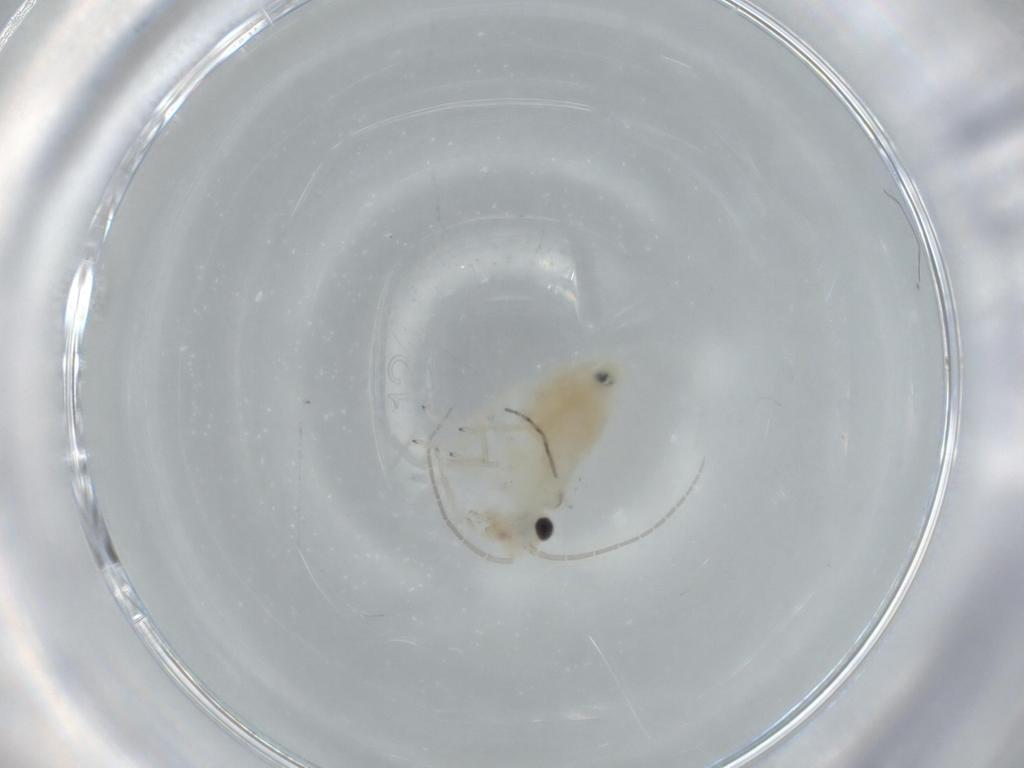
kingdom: Animalia
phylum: Arthropoda
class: Insecta
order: Psocodea
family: Caeciliusidae
